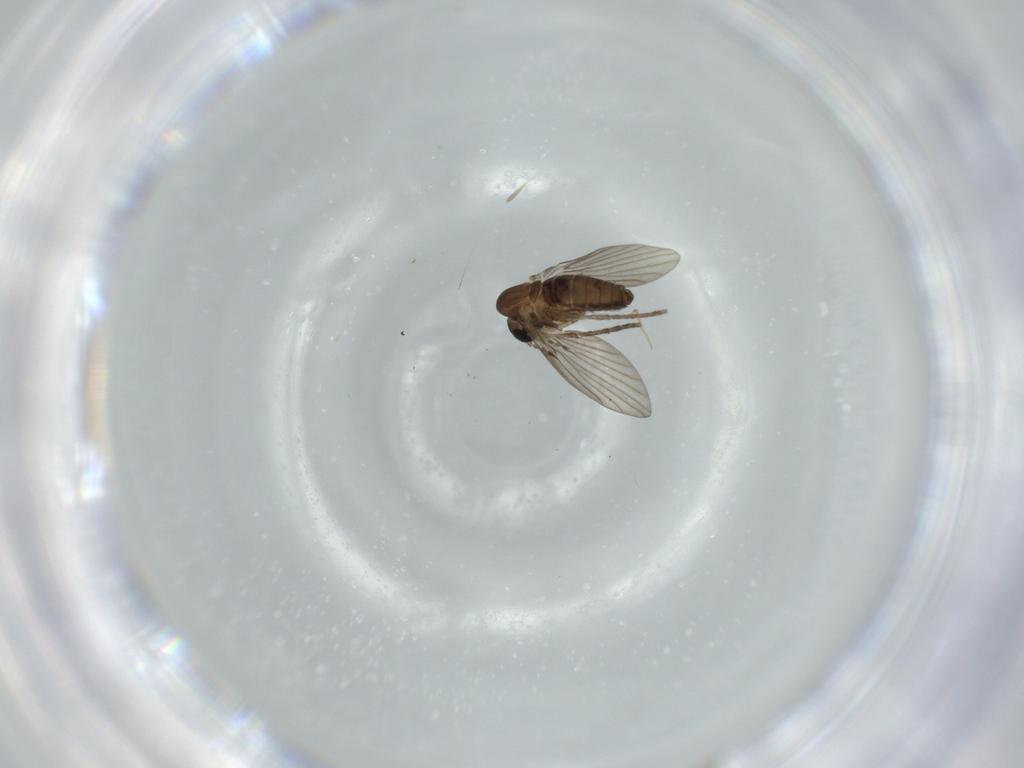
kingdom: Animalia
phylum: Arthropoda
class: Insecta
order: Diptera
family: Psychodidae
